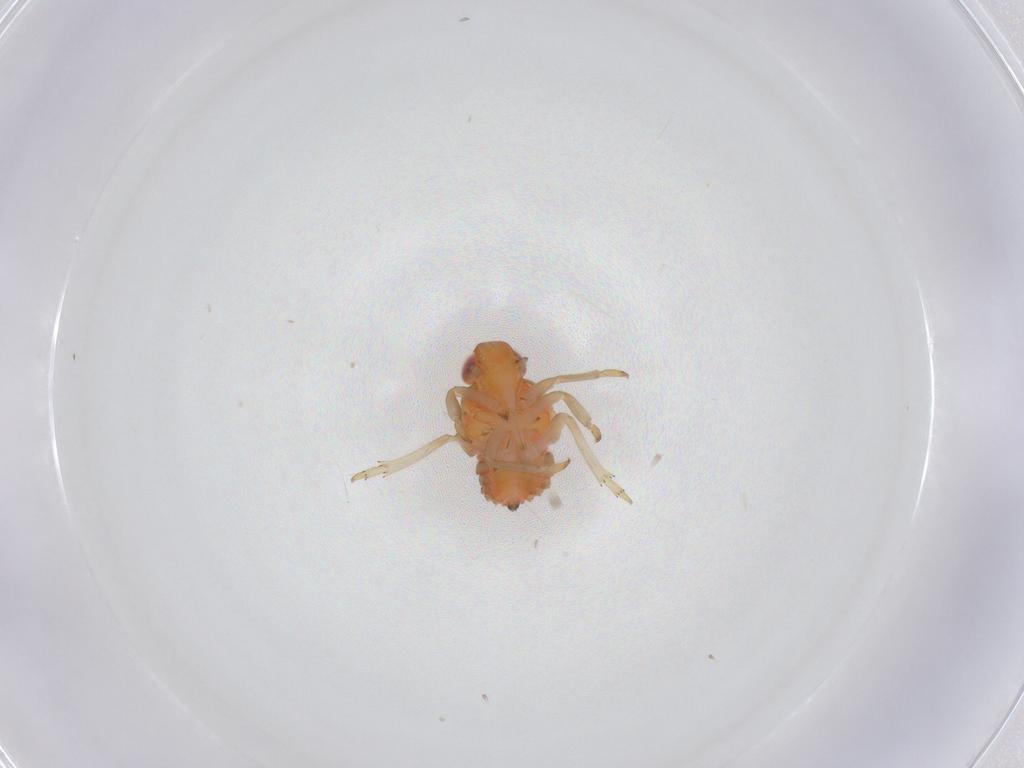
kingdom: Animalia
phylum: Arthropoda
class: Insecta
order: Hemiptera
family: Fulgoroidea_incertae_sedis
